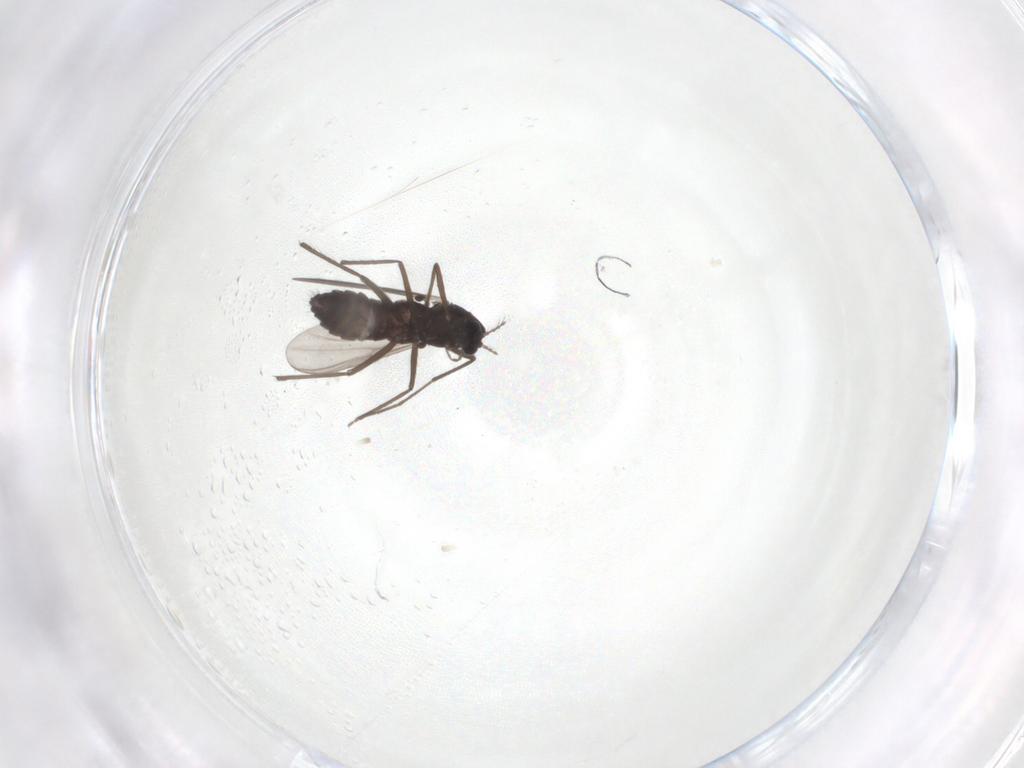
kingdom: Animalia
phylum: Arthropoda
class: Insecta
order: Diptera
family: Chironomidae
